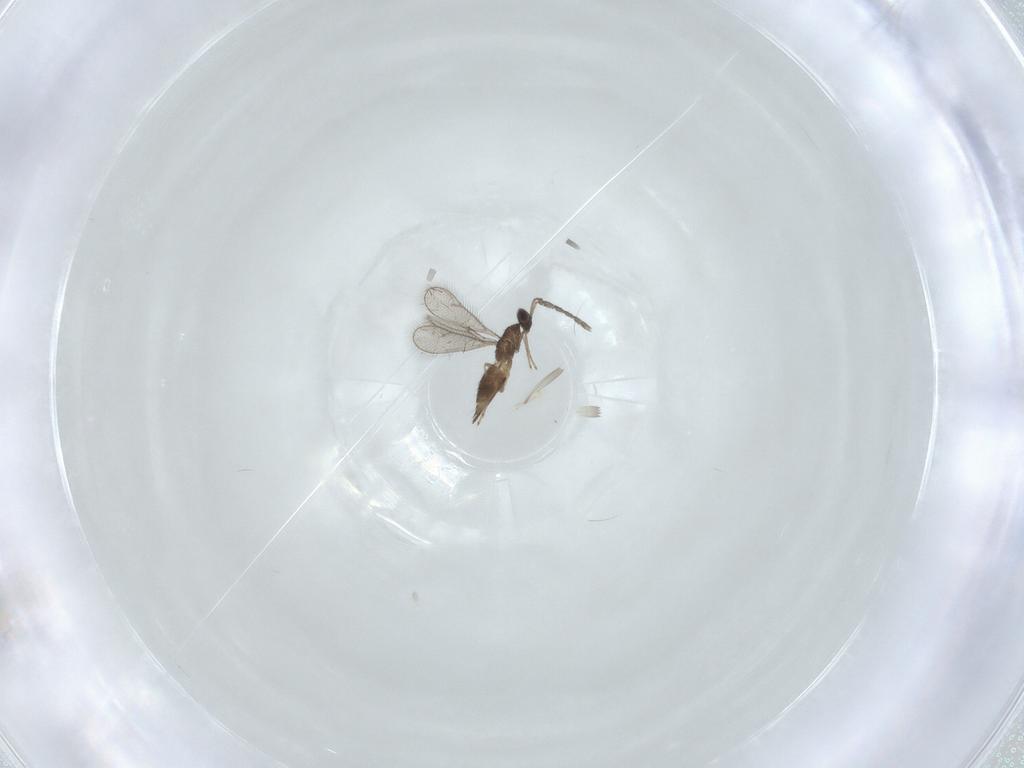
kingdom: Animalia
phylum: Arthropoda
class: Insecta
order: Hymenoptera
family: Eulophidae
